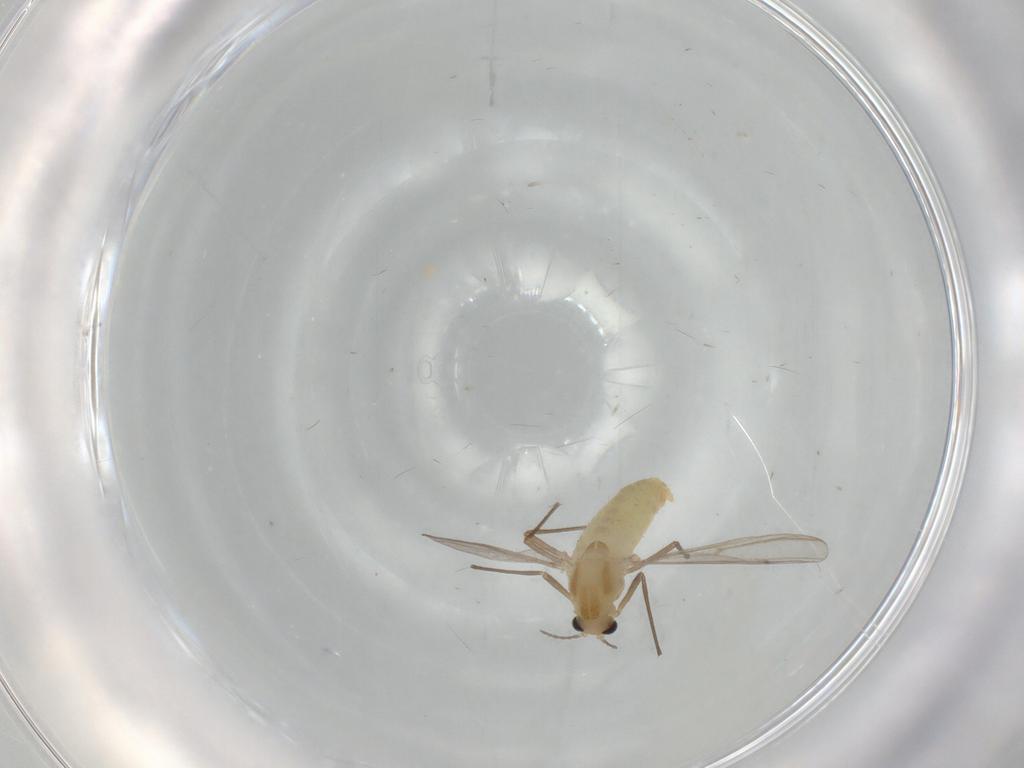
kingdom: Animalia
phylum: Arthropoda
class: Insecta
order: Diptera
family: Chironomidae
